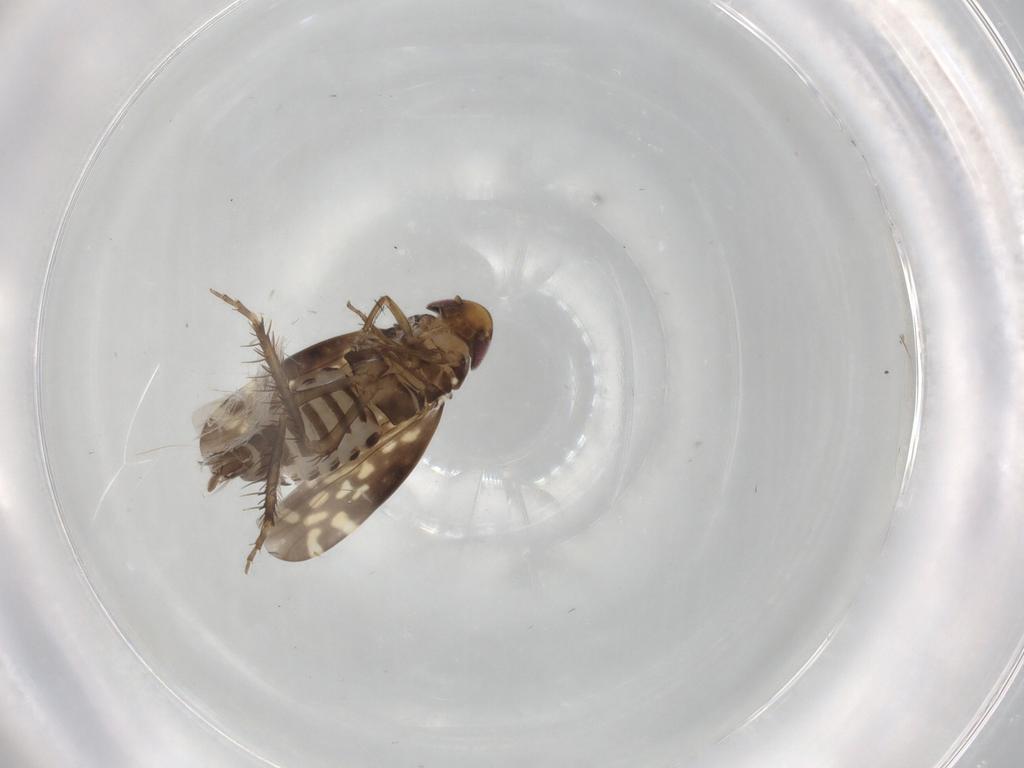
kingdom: Animalia
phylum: Arthropoda
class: Insecta
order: Hemiptera
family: Cicadellidae
